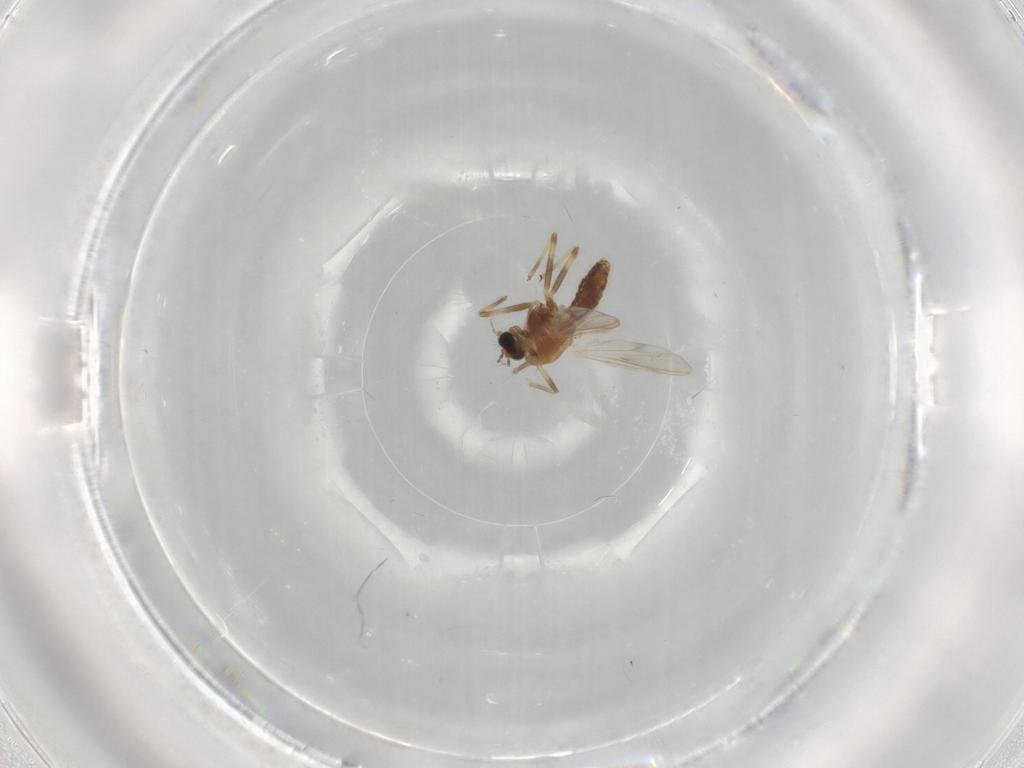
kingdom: Animalia
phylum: Arthropoda
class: Insecta
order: Diptera
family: Chironomidae
